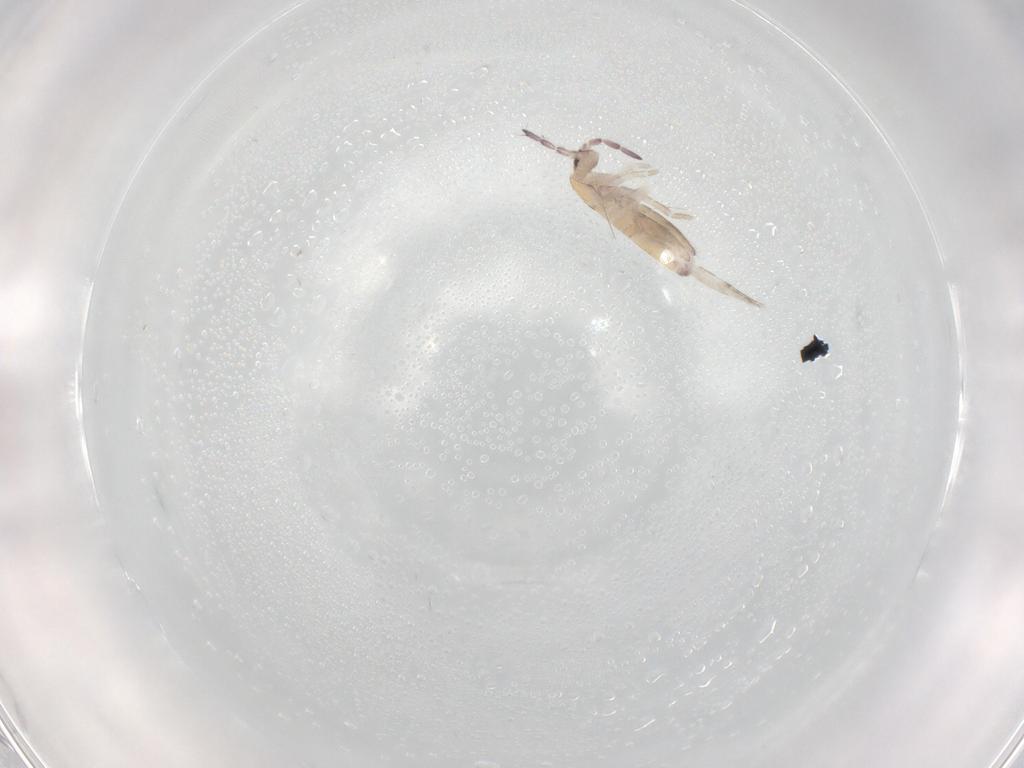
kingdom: Animalia
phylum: Arthropoda
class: Collembola
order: Entomobryomorpha
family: Entomobryidae
